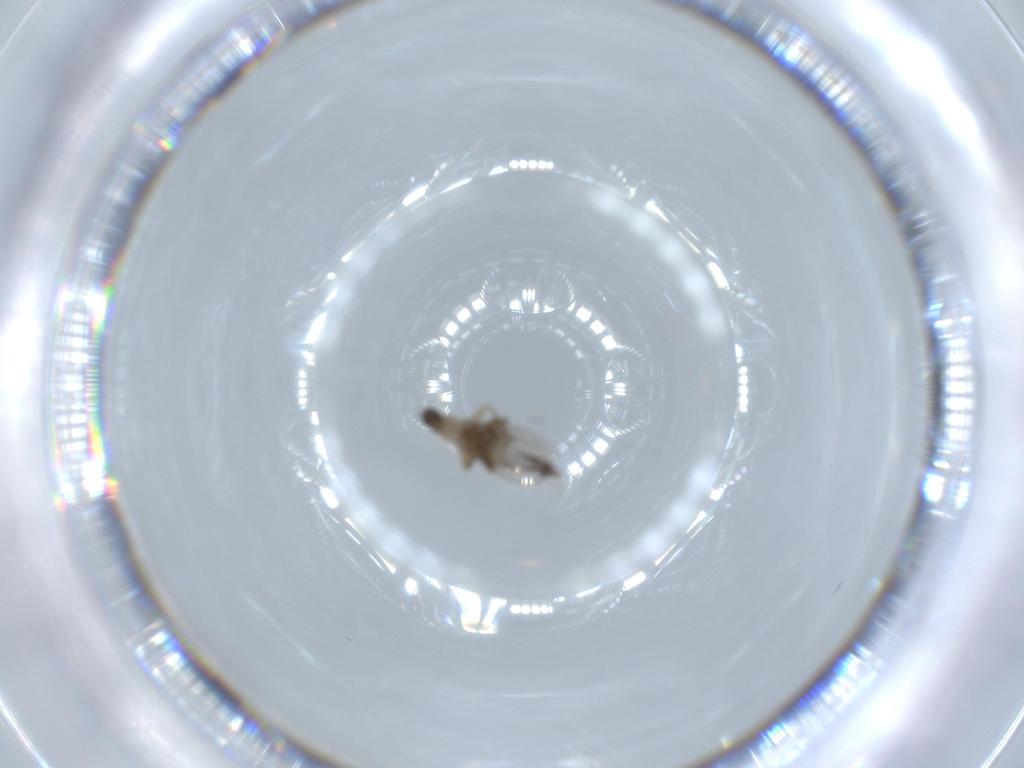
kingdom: Animalia
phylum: Arthropoda
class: Insecta
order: Diptera
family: Phoridae
